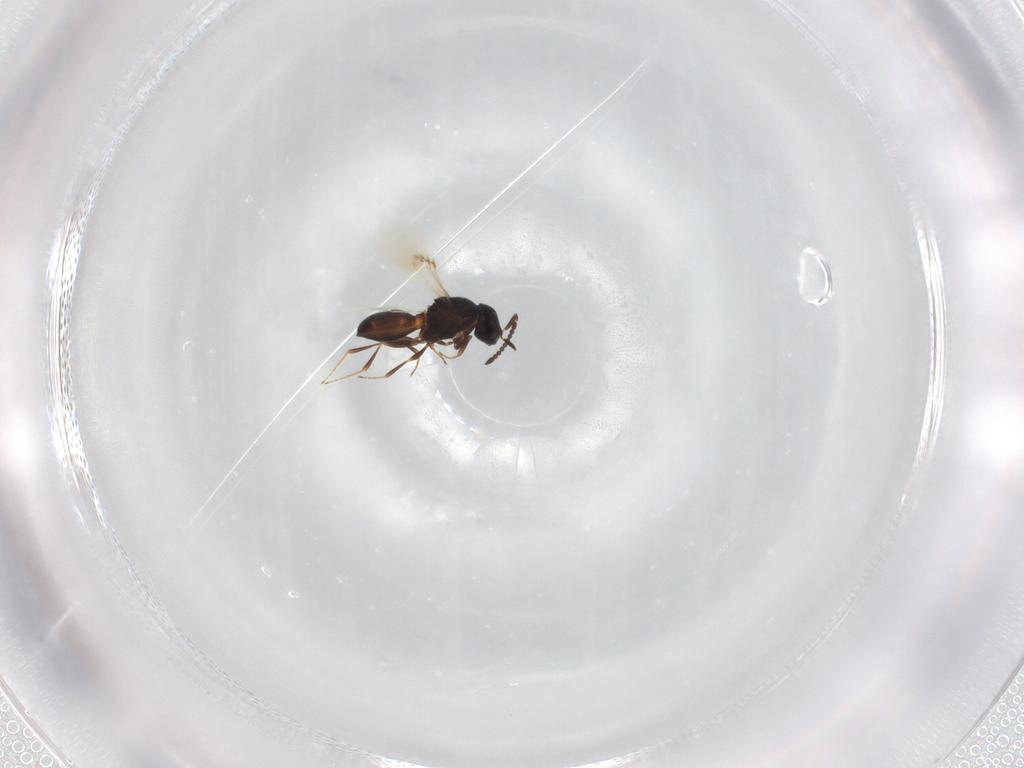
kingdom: Animalia
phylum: Arthropoda
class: Insecta
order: Hymenoptera
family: Scelionidae
